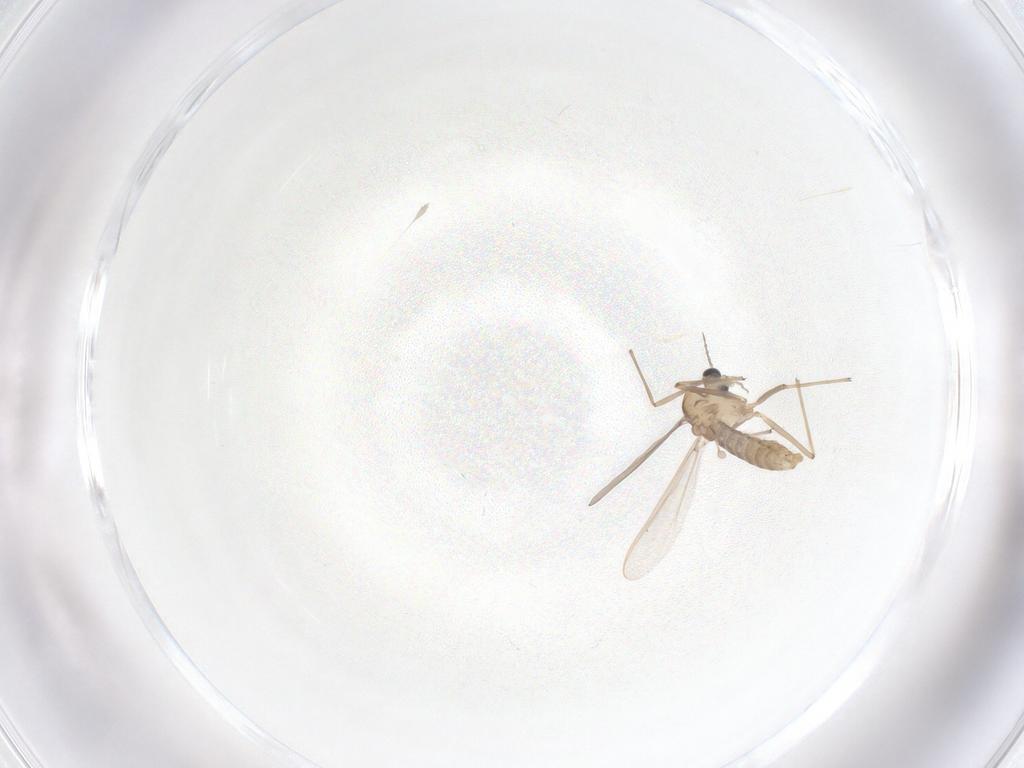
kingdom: Animalia
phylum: Arthropoda
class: Insecta
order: Diptera
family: Chironomidae
